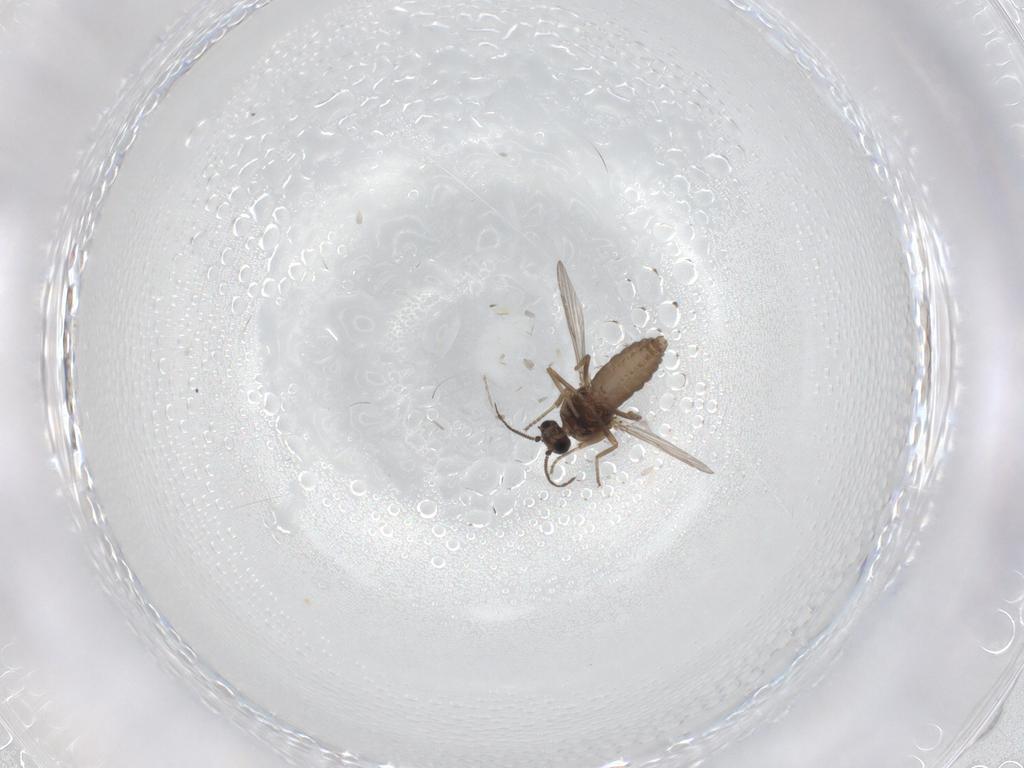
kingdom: Animalia
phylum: Arthropoda
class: Insecta
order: Diptera
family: Ceratopogonidae
